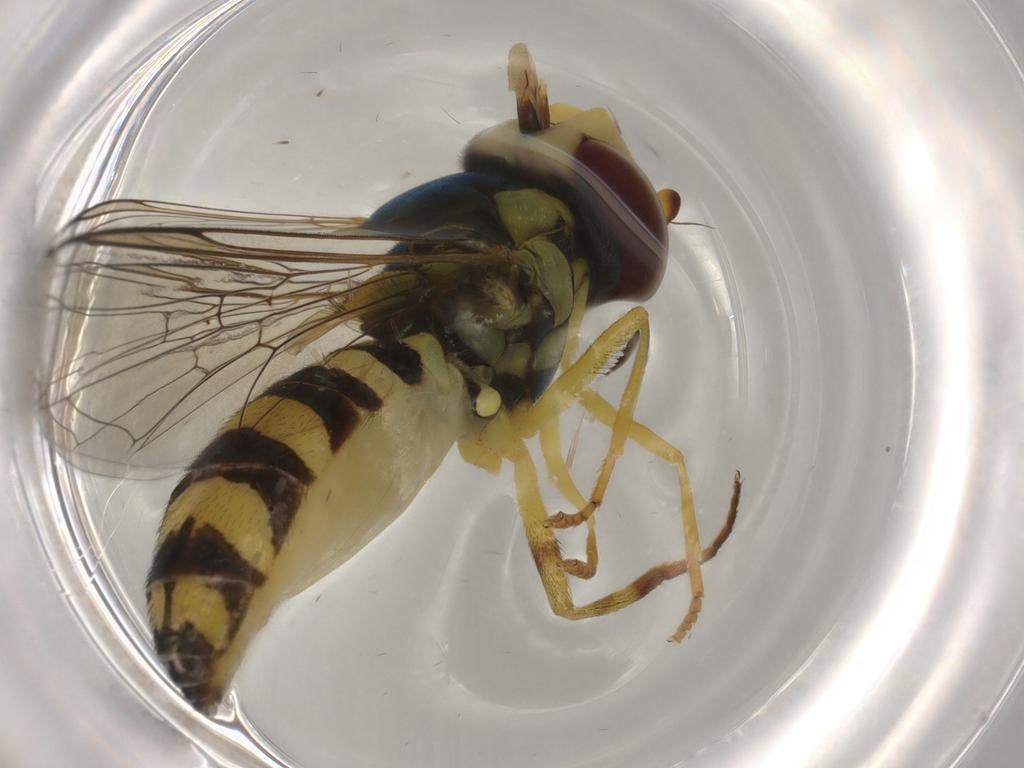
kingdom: Animalia
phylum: Arthropoda
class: Insecta
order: Diptera
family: Syrphidae
